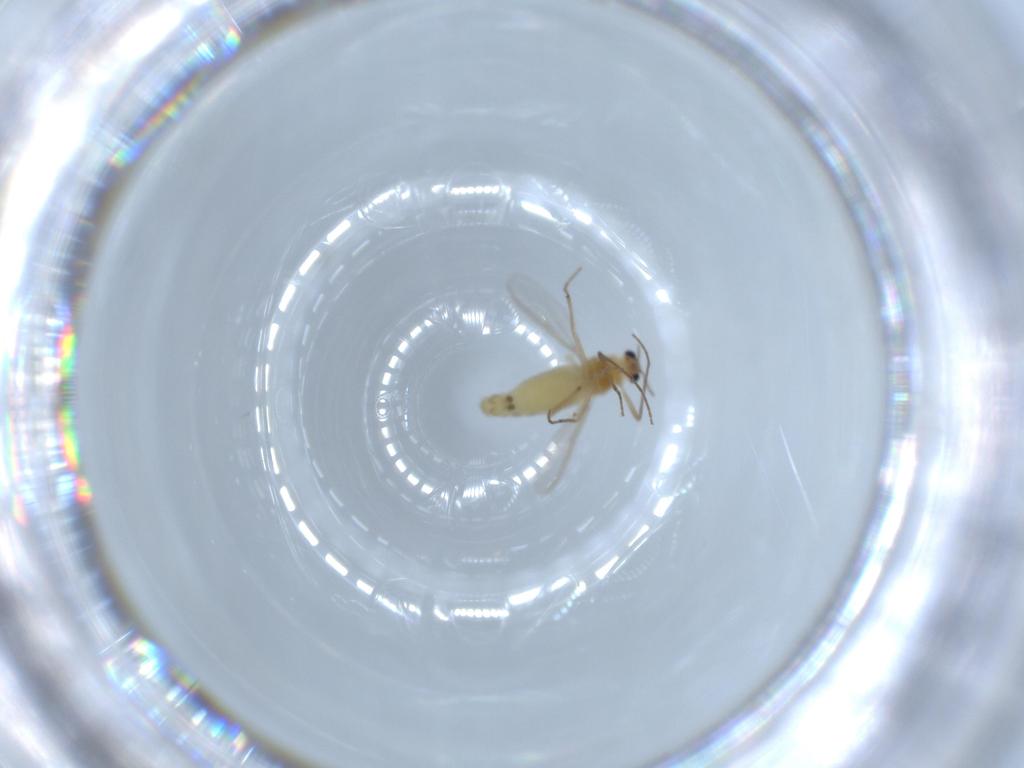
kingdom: Animalia
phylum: Arthropoda
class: Insecta
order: Diptera
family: Chironomidae
